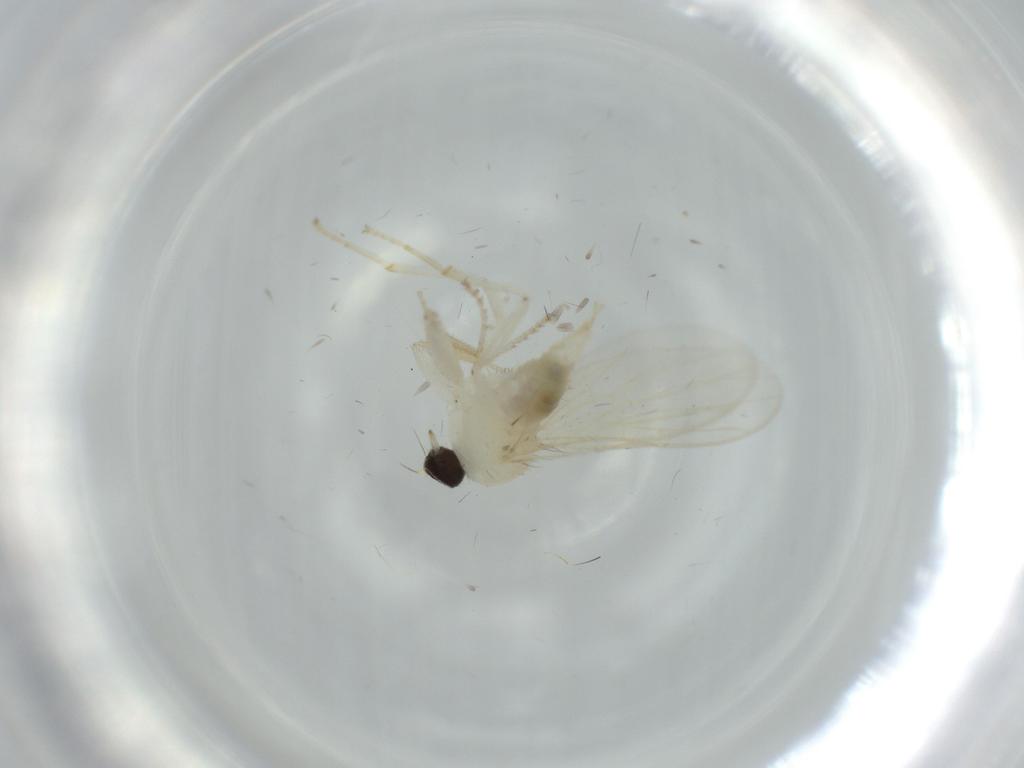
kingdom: Animalia
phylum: Arthropoda
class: Insecta
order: Diptera
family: Hybotidae
